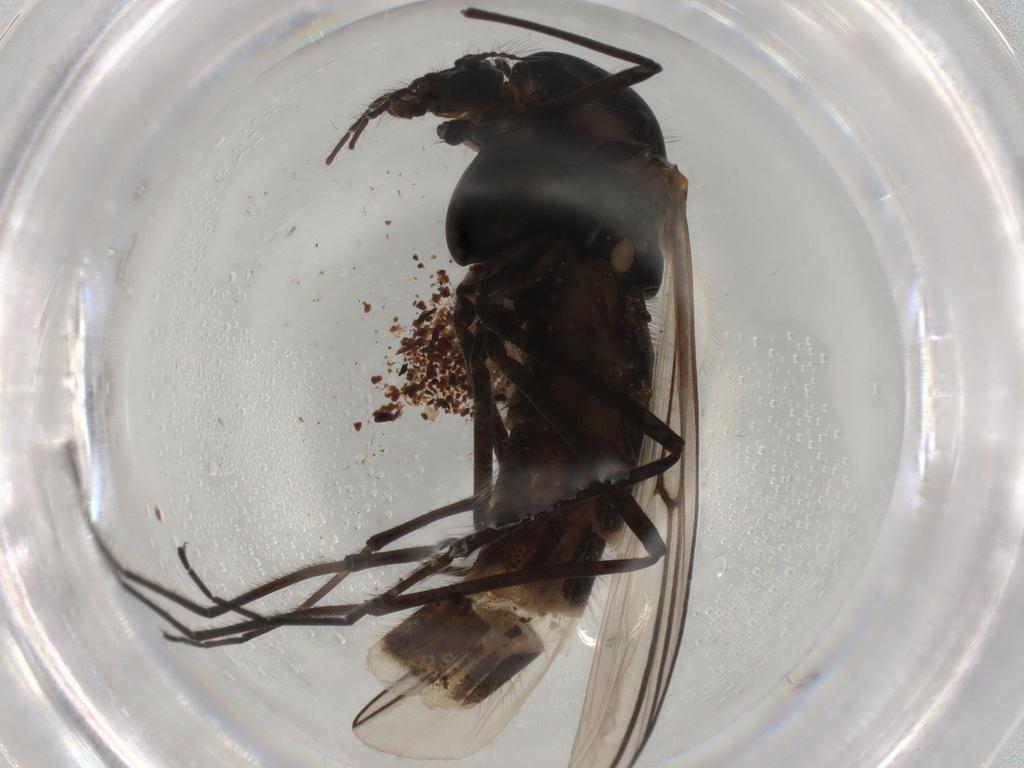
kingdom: Animalia
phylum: Arthropoda
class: Insecta
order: Diptera
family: Chironomidae
